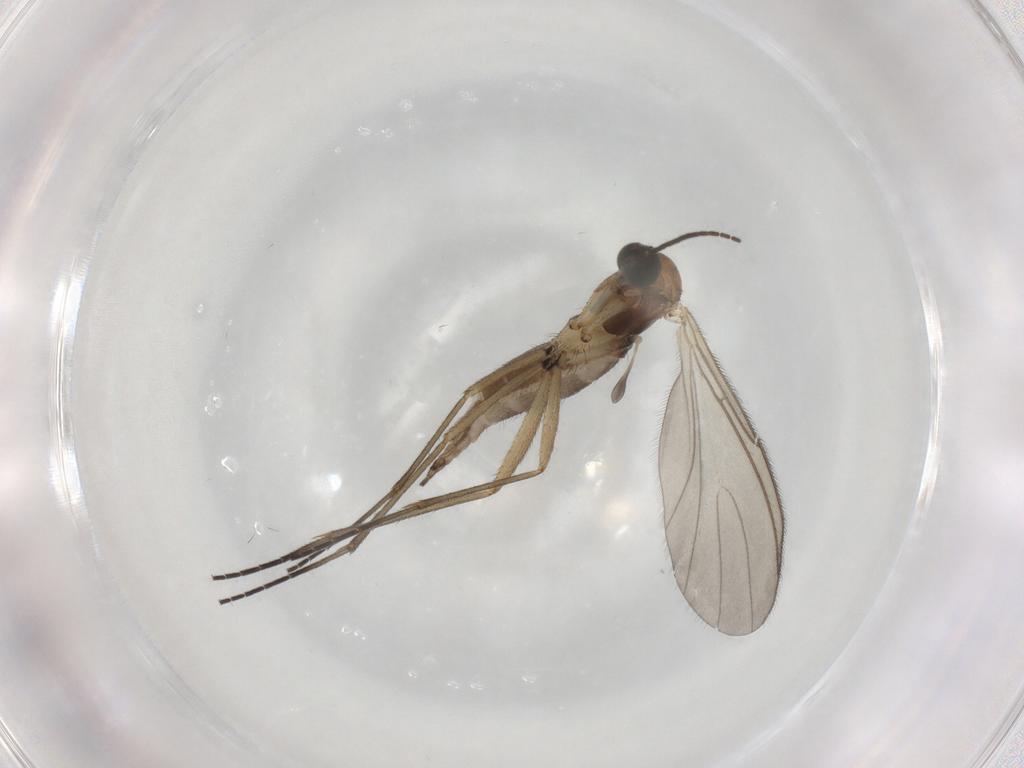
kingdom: Animalia
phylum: Arthropoda
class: Insecta
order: Diptera
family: Sciaridae
